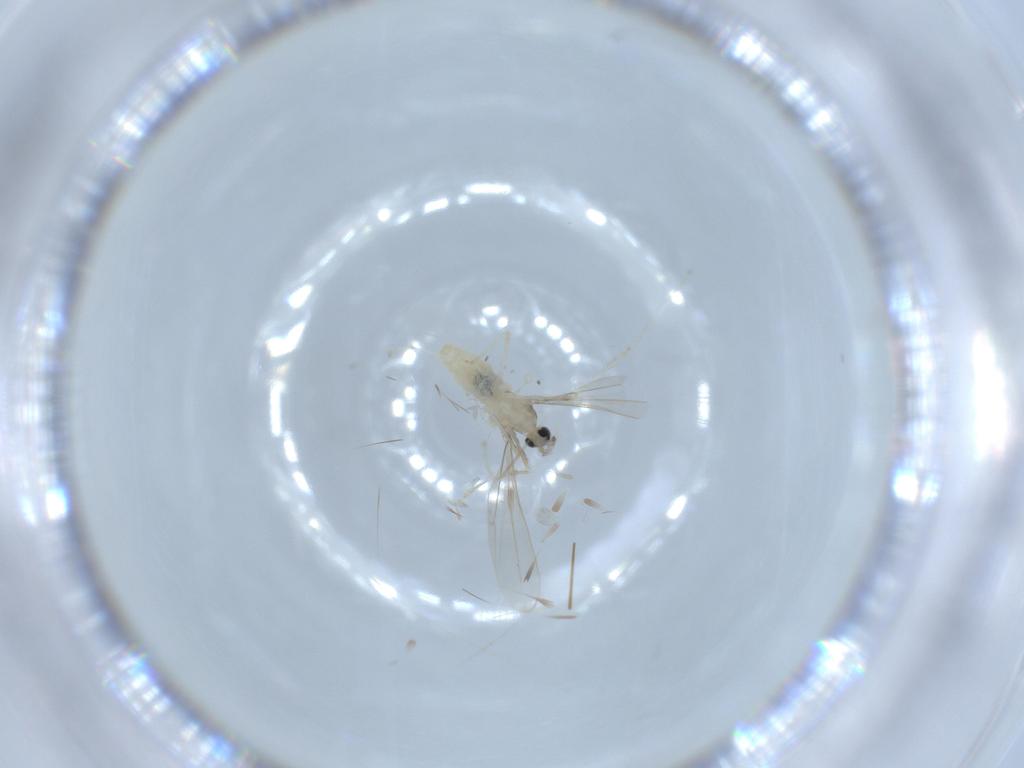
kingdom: Animalia
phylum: Arthropoda
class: Insecta
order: Diptera
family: Cecidomyiidae
